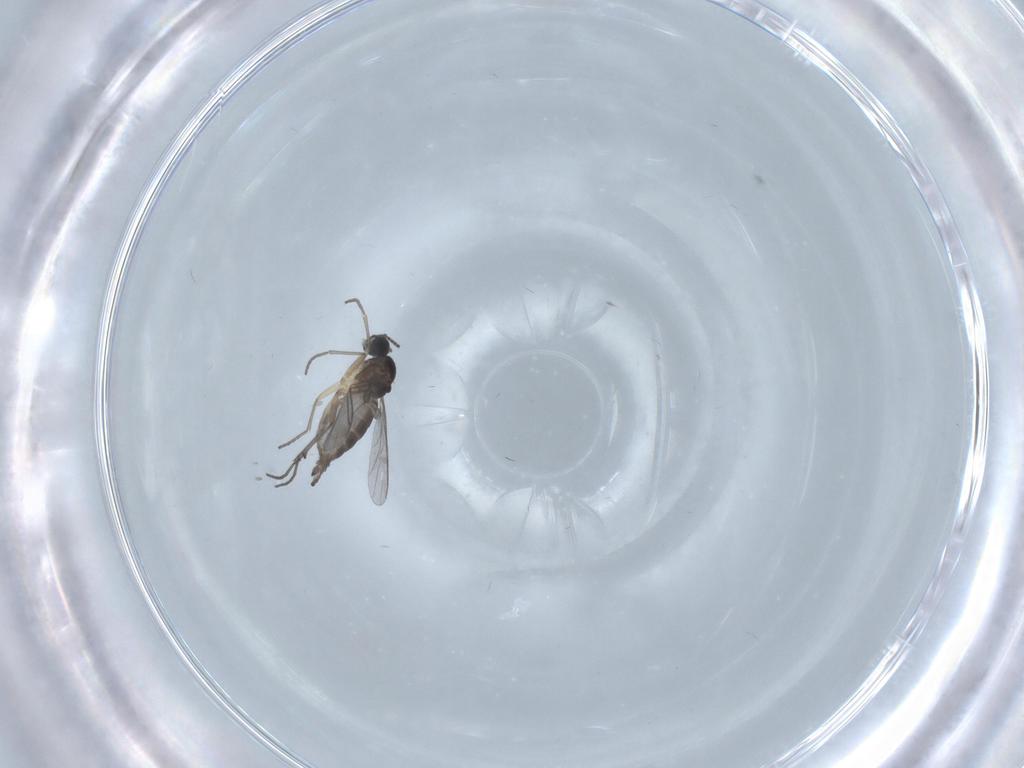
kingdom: Animalia
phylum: Arthropoda
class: Insecta
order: Diptera
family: Sciaridae
